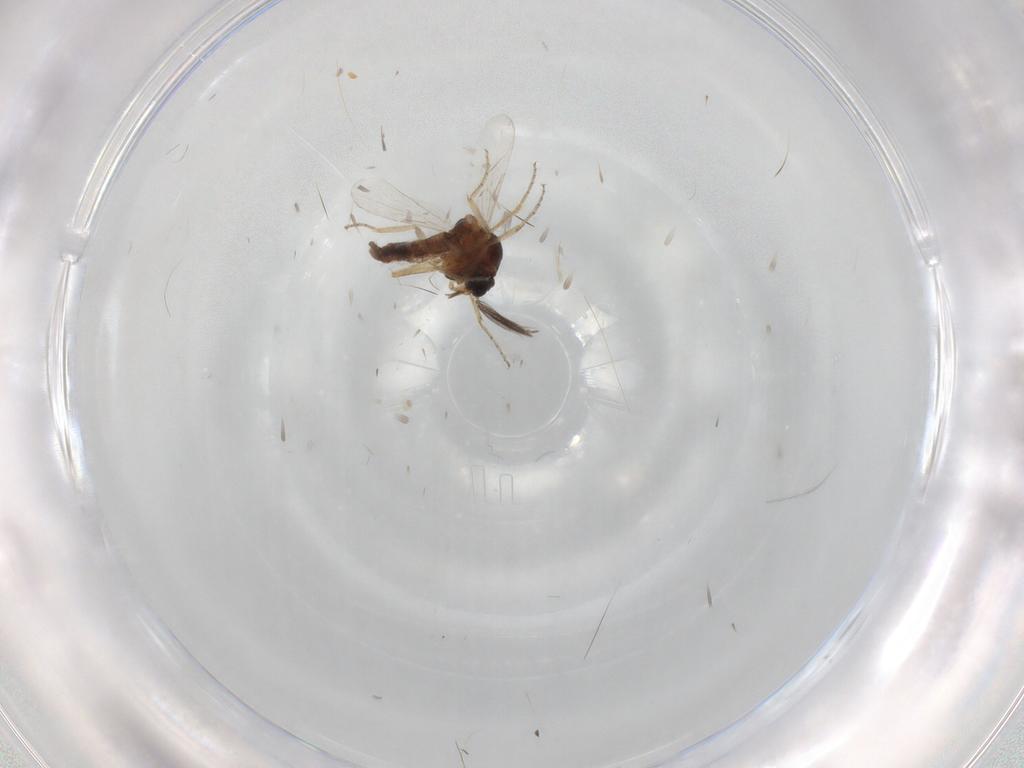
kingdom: Animalia
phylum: Arthropoda
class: Insecta
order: Diptera
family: Ceratopogonidae
